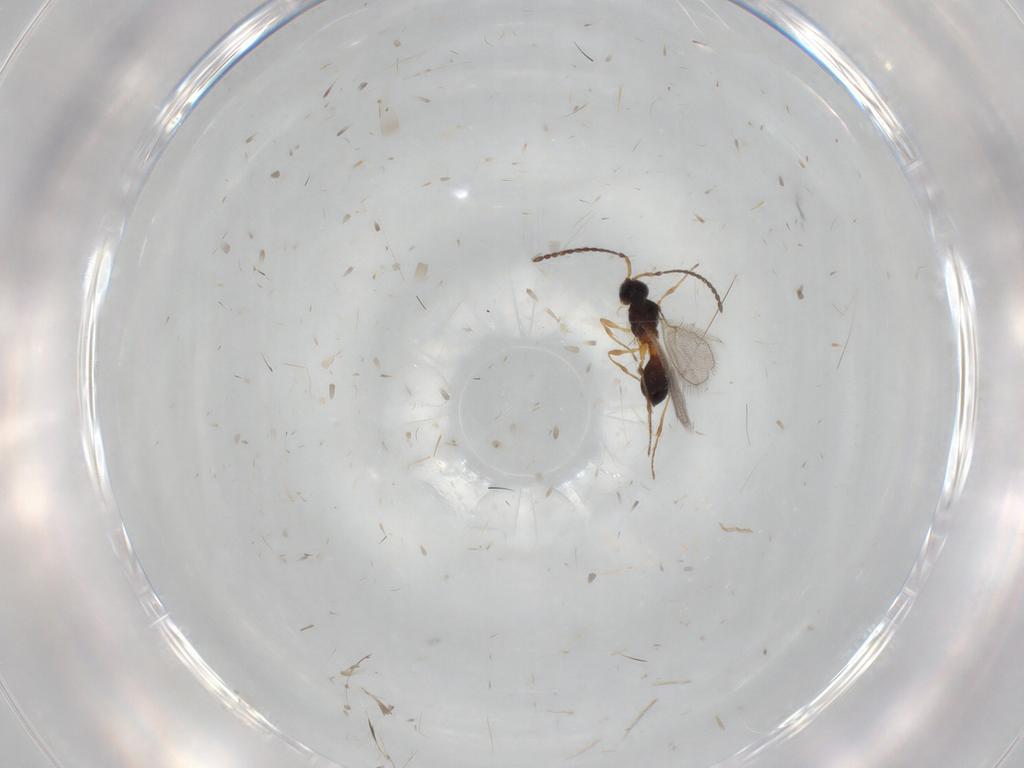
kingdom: Animalia
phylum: Arthropoda
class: Insecta
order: Hymenoptera
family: Diapriidae
